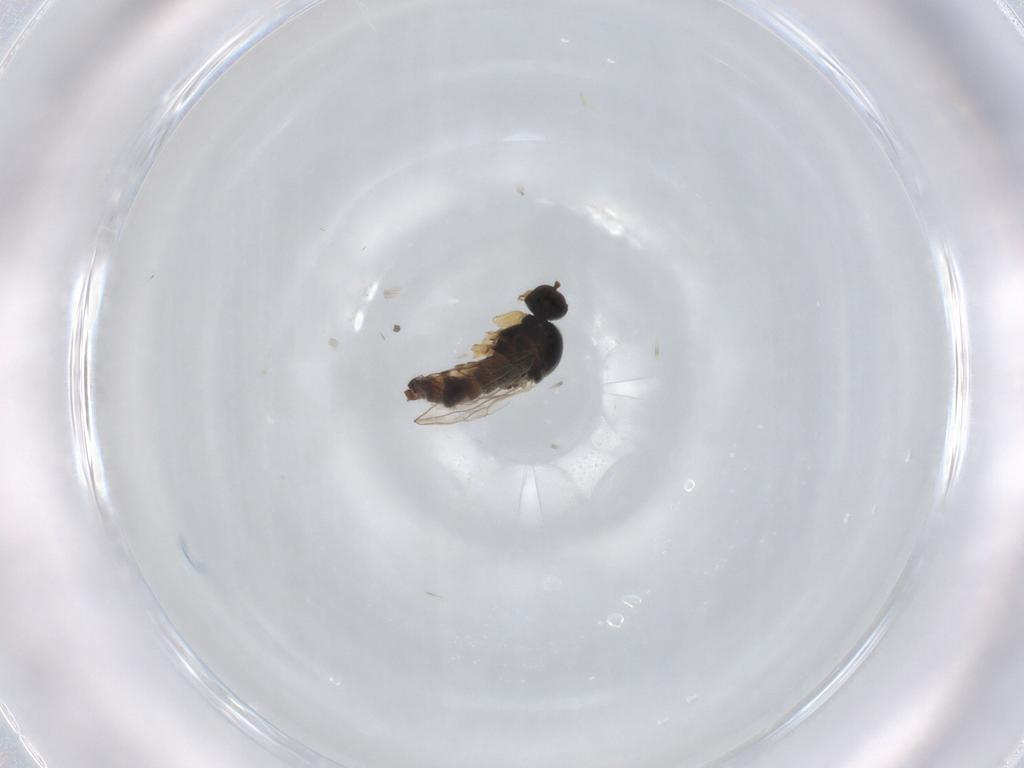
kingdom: Animalia
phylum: Arthropoda
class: Insecta
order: Diptera
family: Hybotidae
